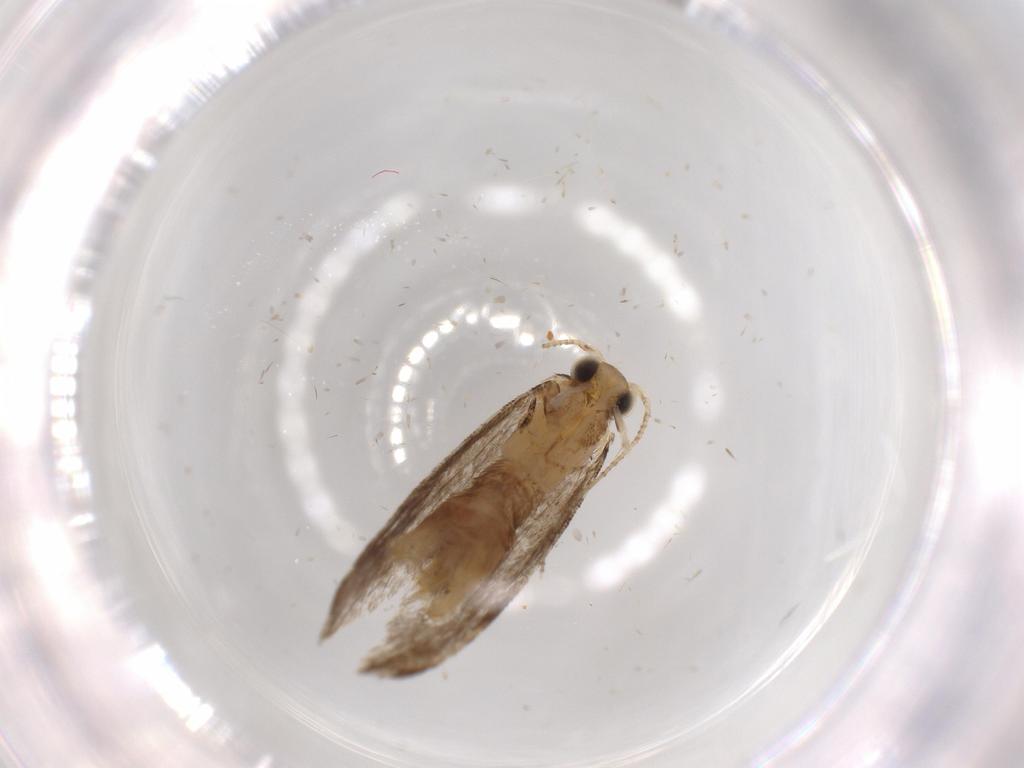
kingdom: Animalia
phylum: Arthropoda
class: Insecta
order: Lepidoptera
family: Tineidae
